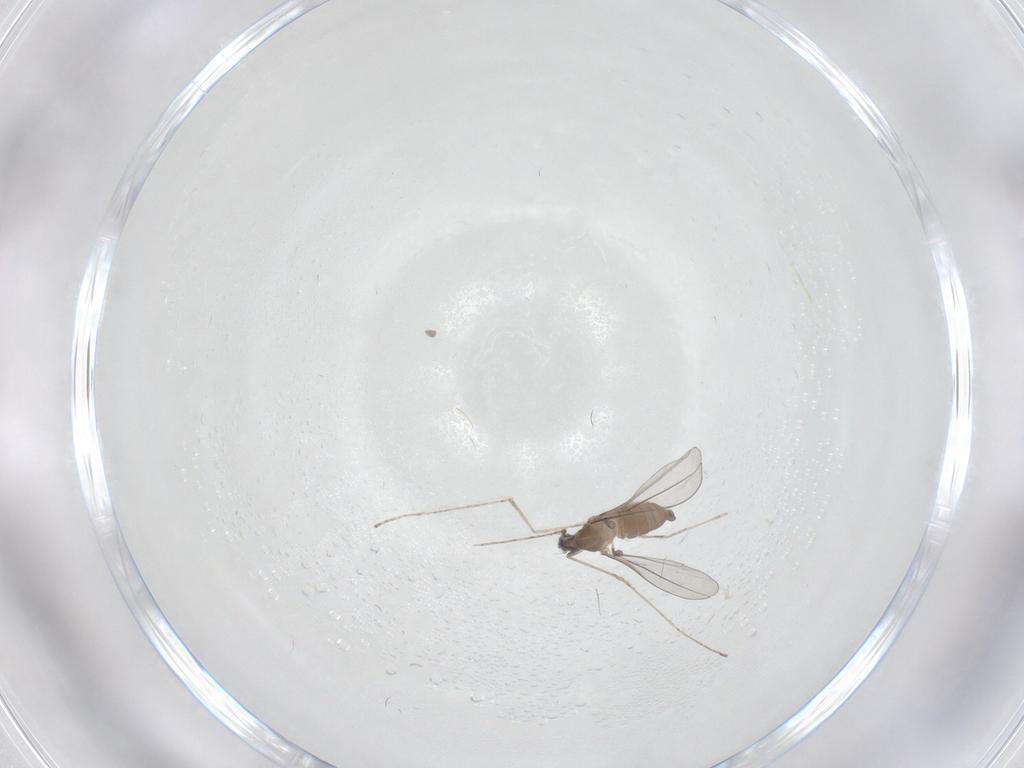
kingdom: Animalia
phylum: Arthropoda
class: Insecta
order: Diptera
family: Cecidomyiidae
